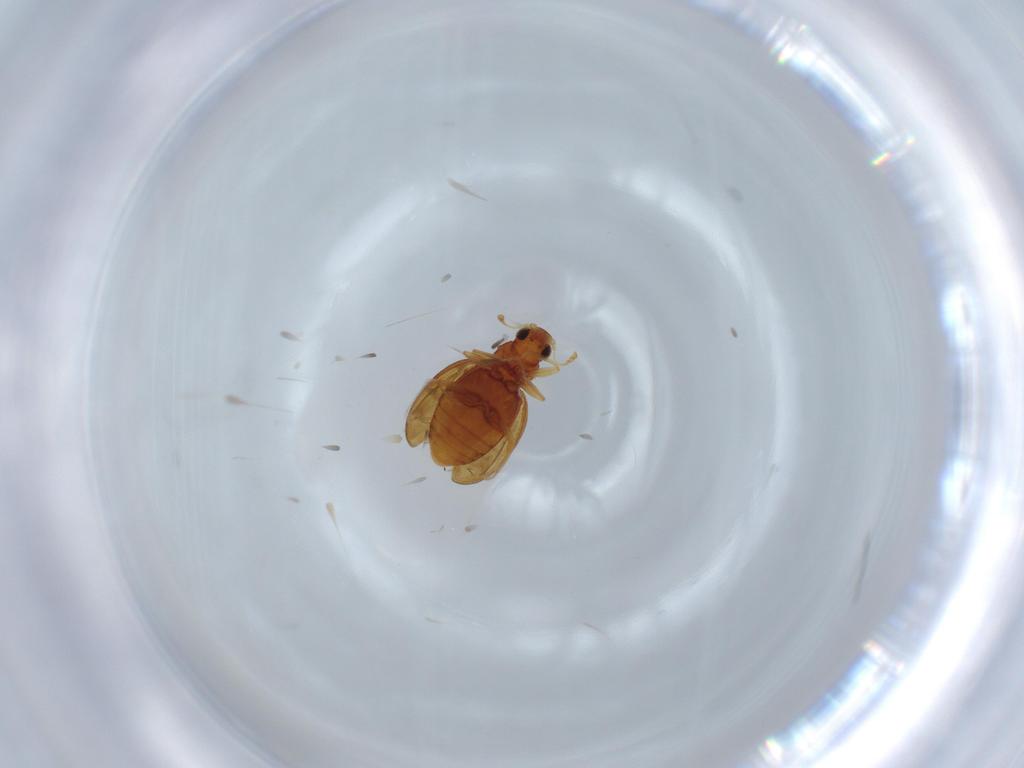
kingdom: Animalia
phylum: Arthropoda
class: Insecta
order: Coleoptera
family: Latridiidae
